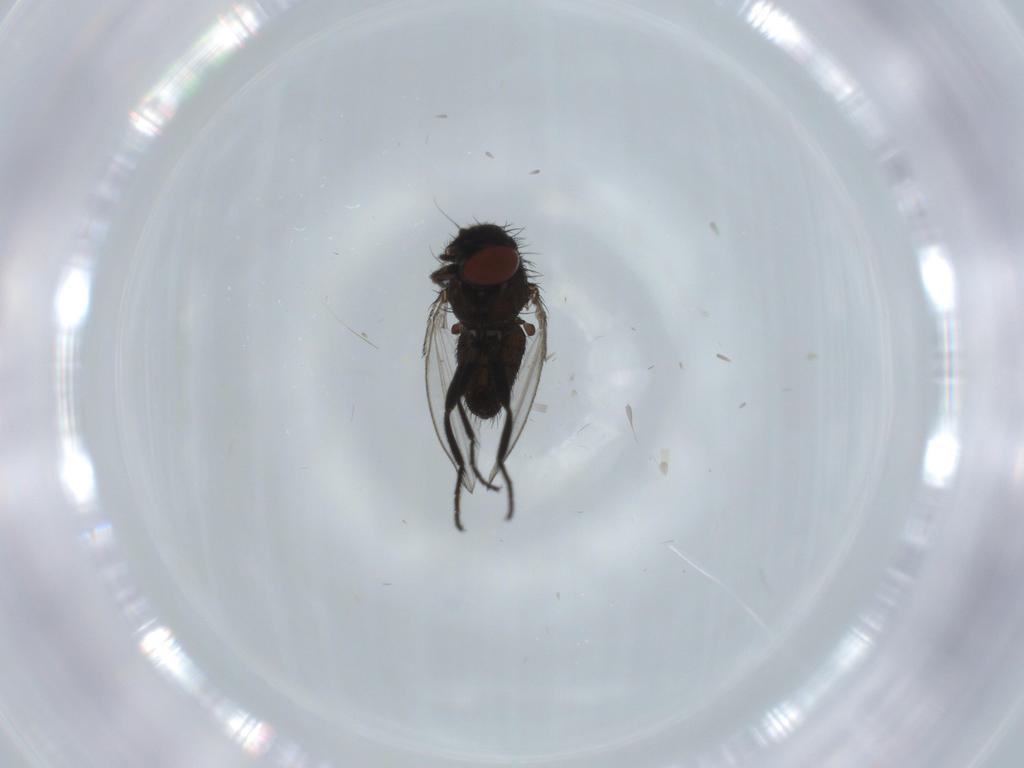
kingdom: Animalia
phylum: Arthropoda
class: Insecta
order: Diptera
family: Milichiidae
